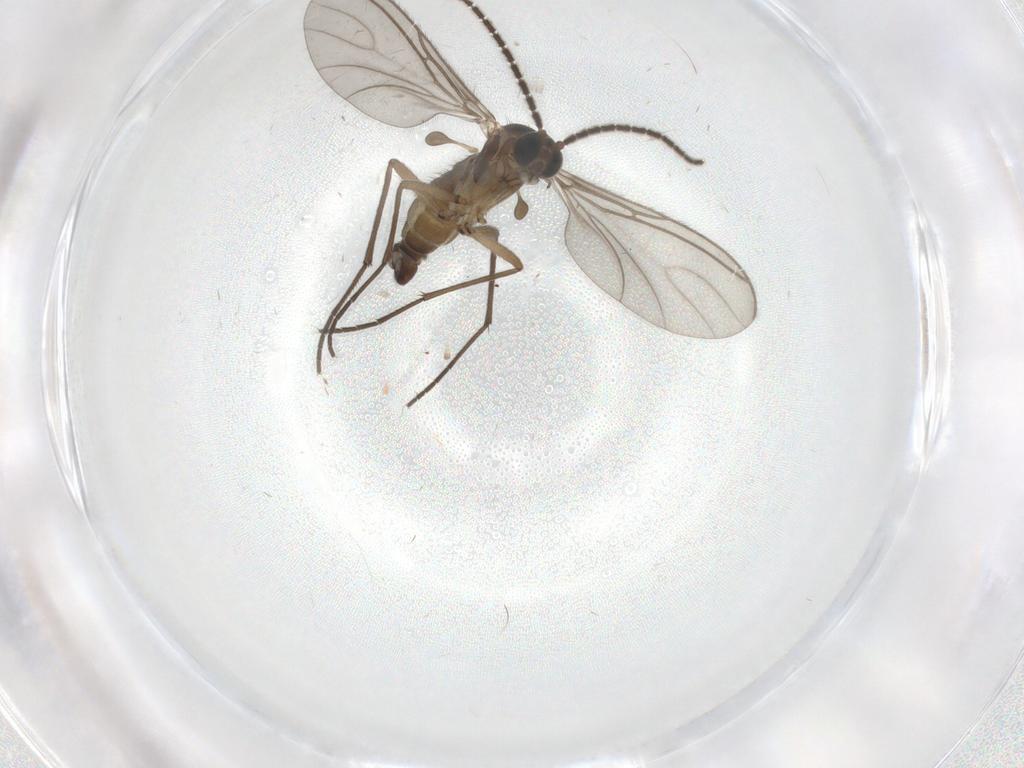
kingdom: Animalia
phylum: Arthropoda
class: Insecta
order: Diptera
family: Sciaridae
